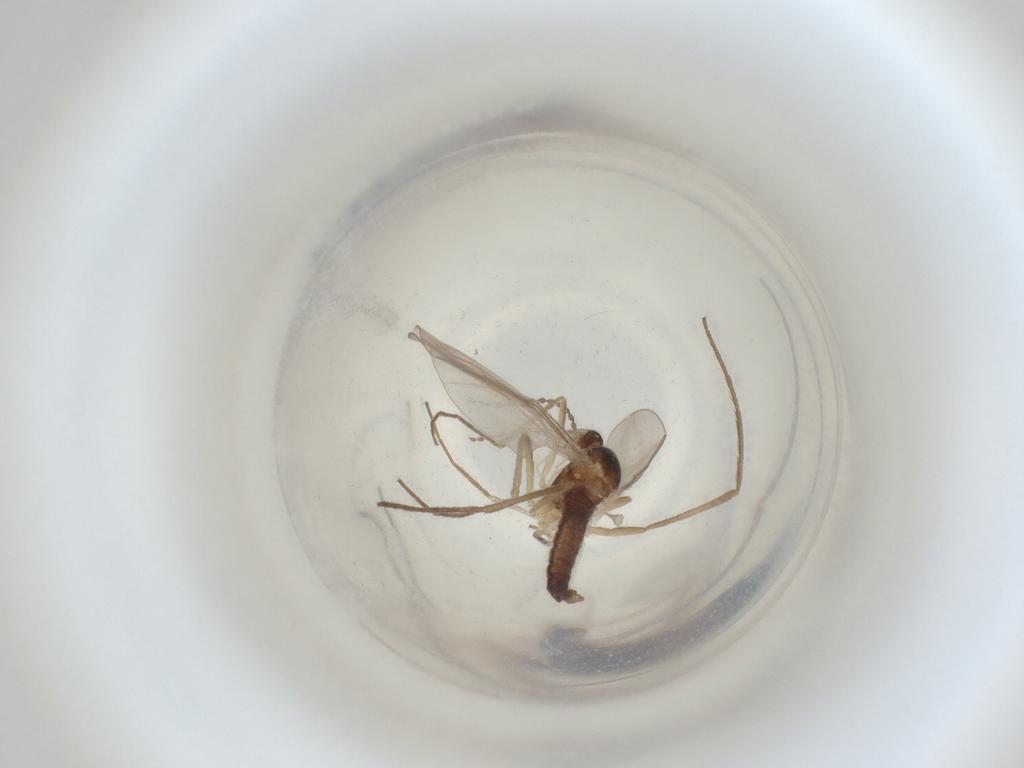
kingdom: Animalia
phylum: Arthropoda
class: Insecta
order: Diptera
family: Cecidomyiidae
